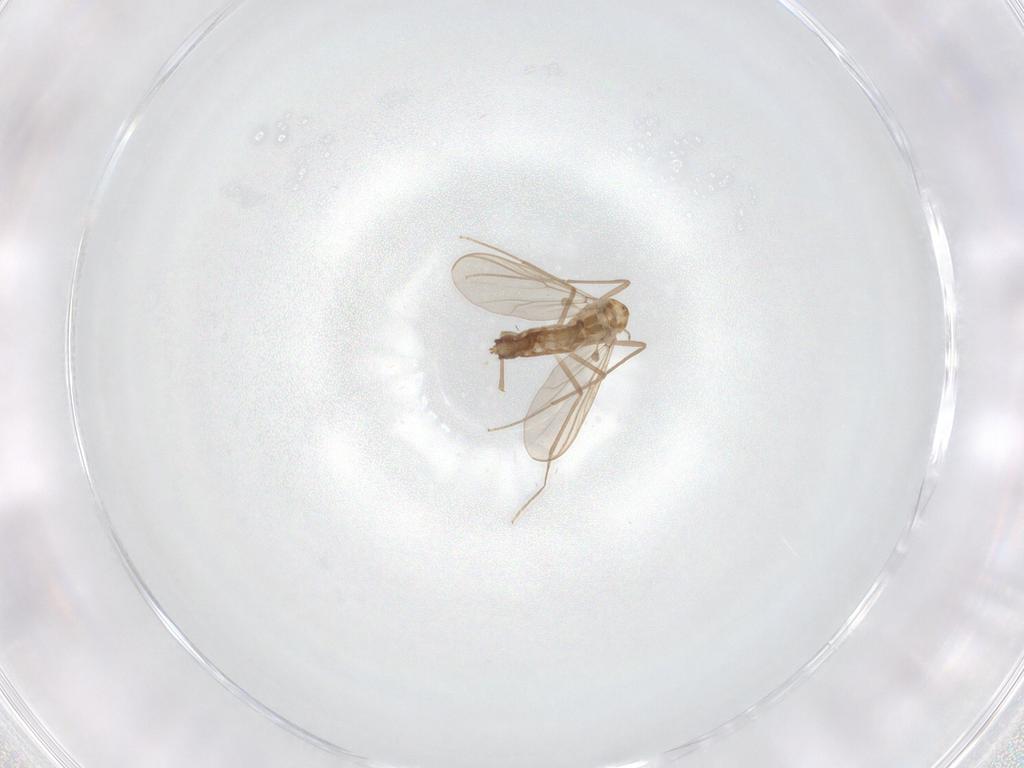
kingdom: Animalia
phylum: Arthropoda
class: Insecta
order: Diptera
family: Chironomidae
